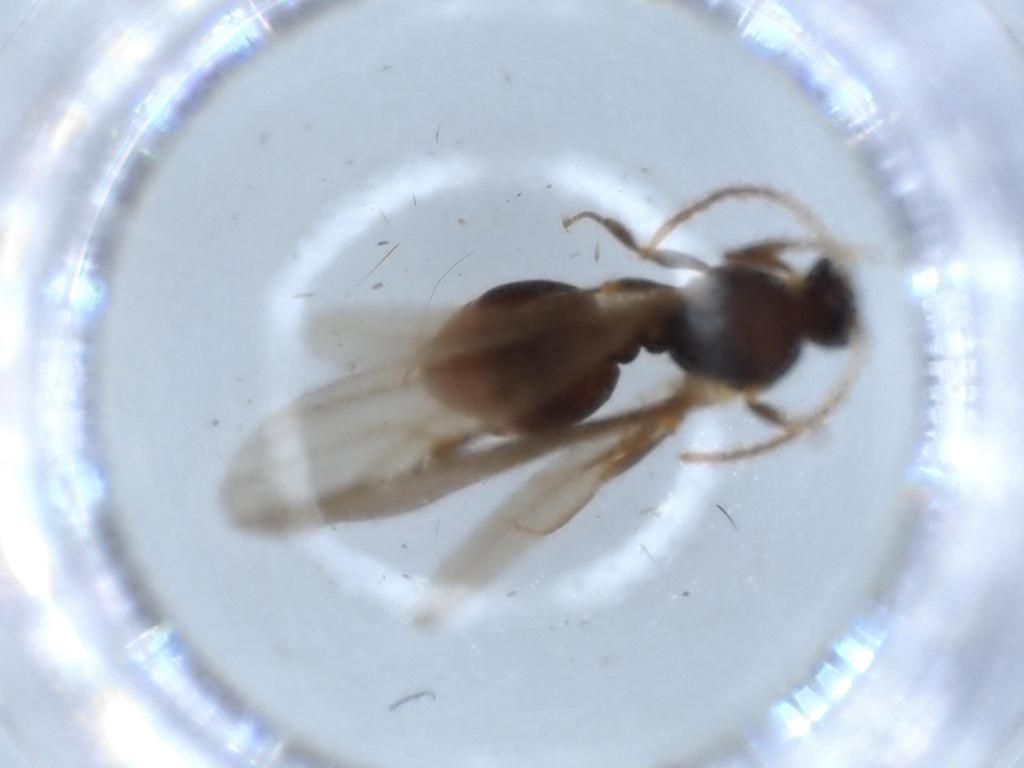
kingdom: Animalia
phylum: Arthropoda
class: Insecta
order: Hymenoptera
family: Formicidae
